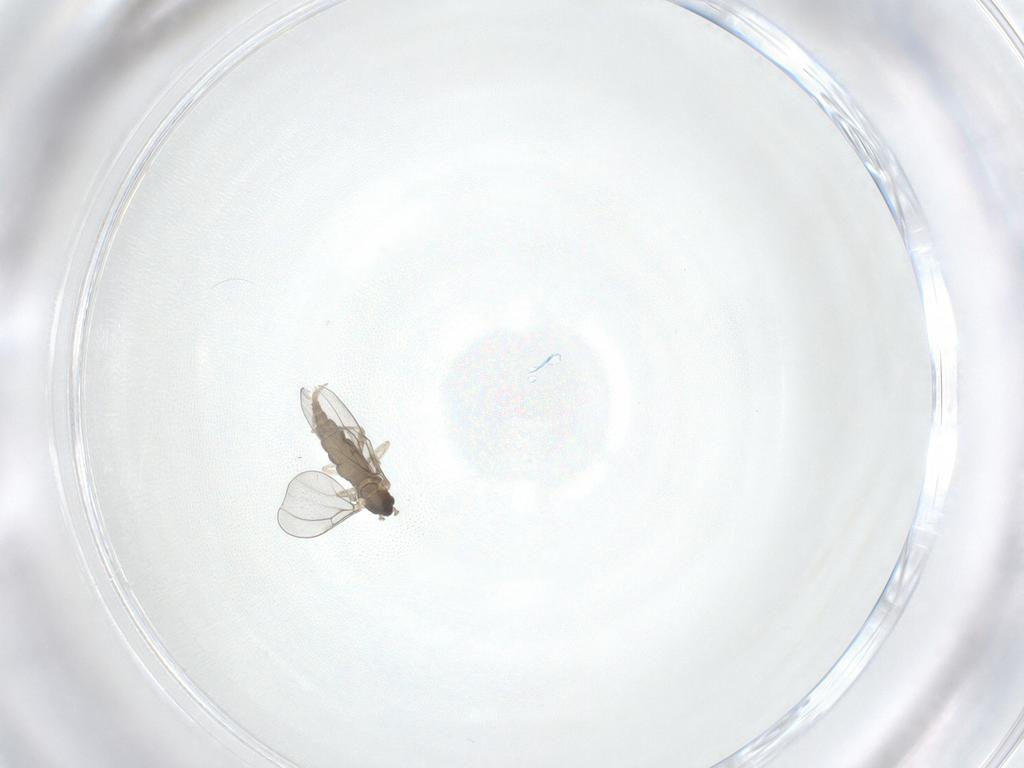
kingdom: Animalia
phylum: Arthropoda
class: Insecta
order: Diptera
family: Cecidomyiidae
